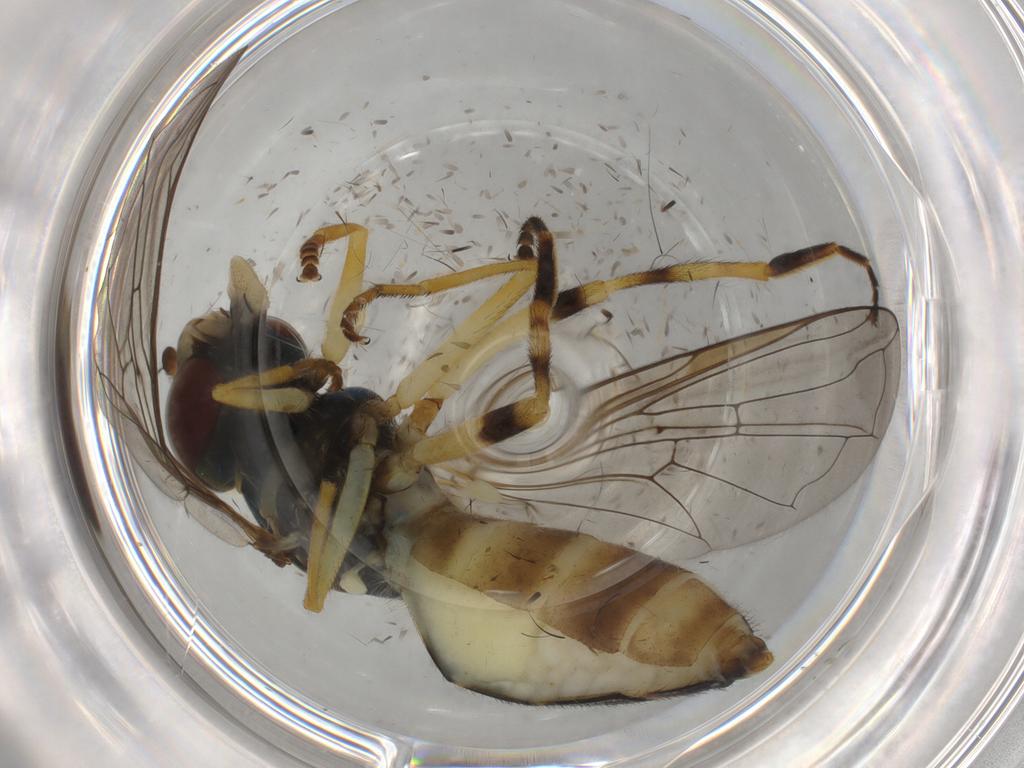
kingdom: Animalia
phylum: Arthropoda
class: Insecta
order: Diptera
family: Syrphidae
